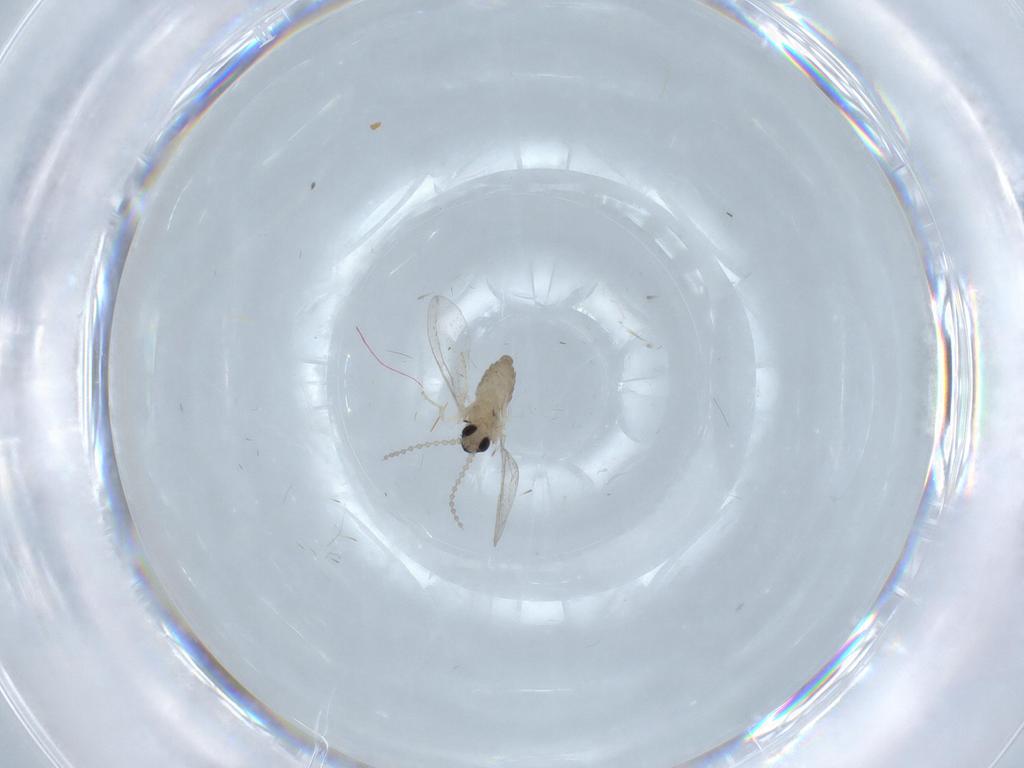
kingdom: Animalia
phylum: Arthropoda
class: Insecta
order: Diptera
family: Cecidomyiidae
